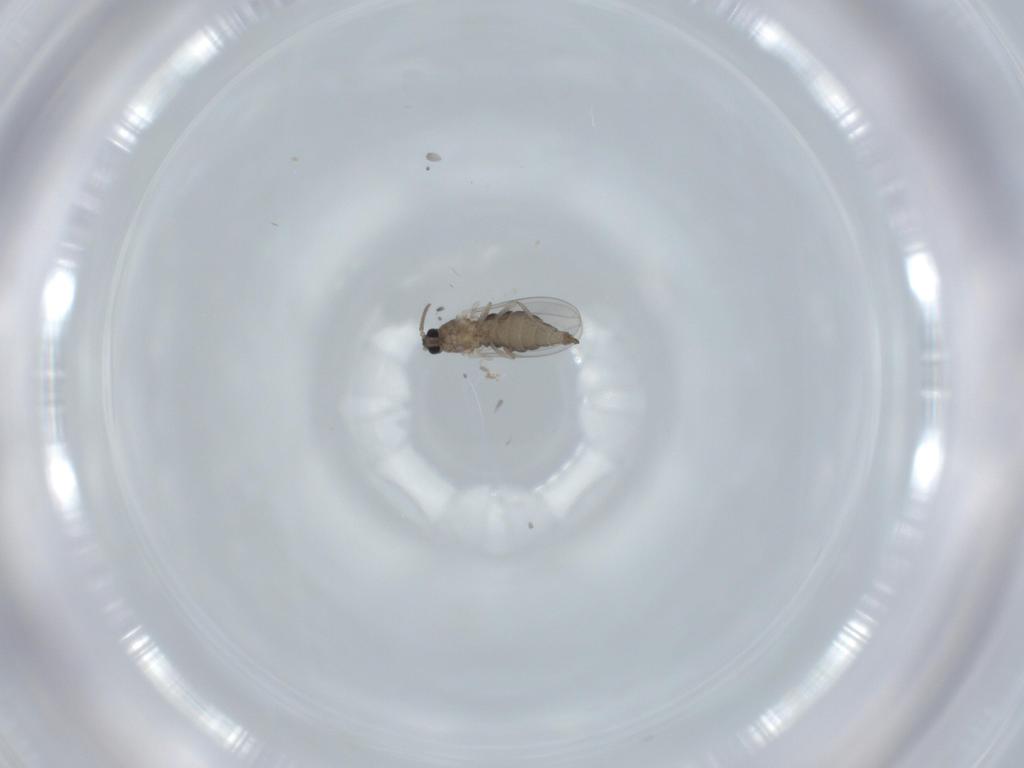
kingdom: Animalia
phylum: Arthropoda
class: Insecta
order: Diptera
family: Cecidomyiidae
